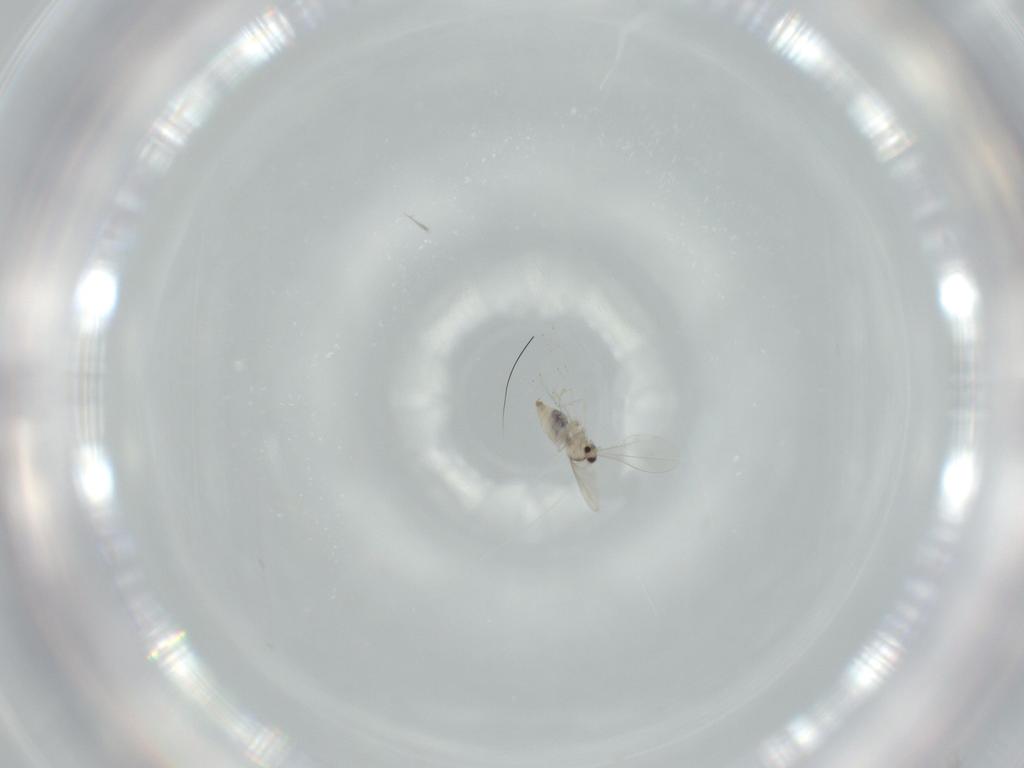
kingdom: Animalia
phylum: Arthropoda
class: Insecta
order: Diptera
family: Cecidomyiidae
